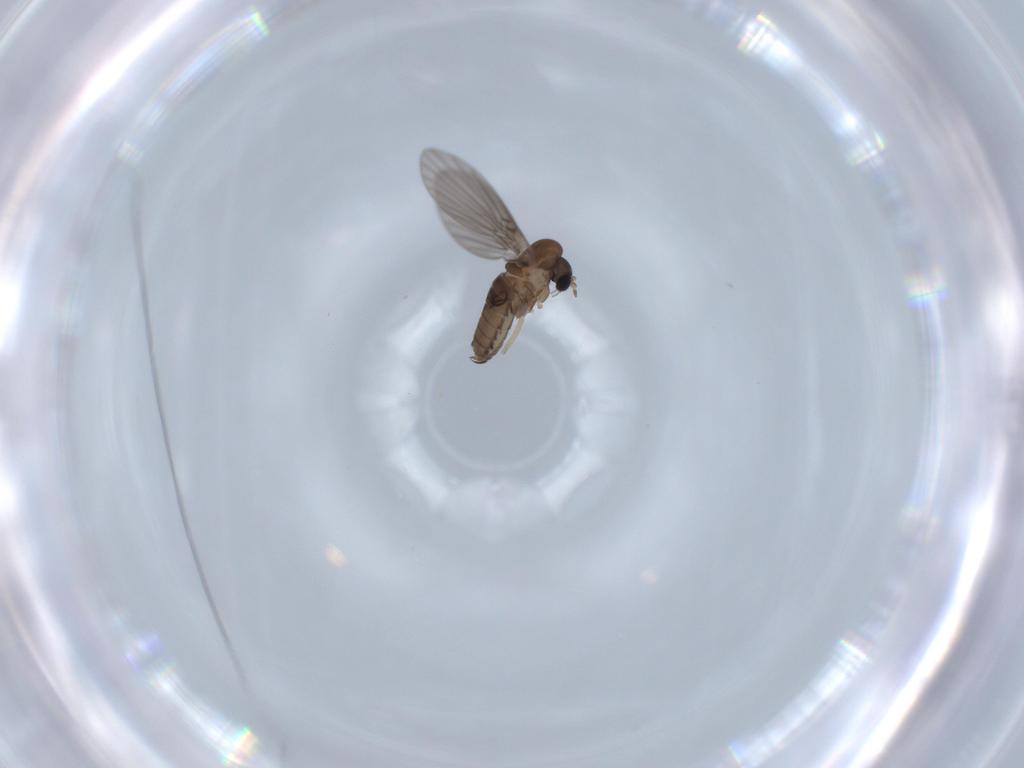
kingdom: Animalia
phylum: Arthropoda
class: Insecta
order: Diptera
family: Psychodidae
